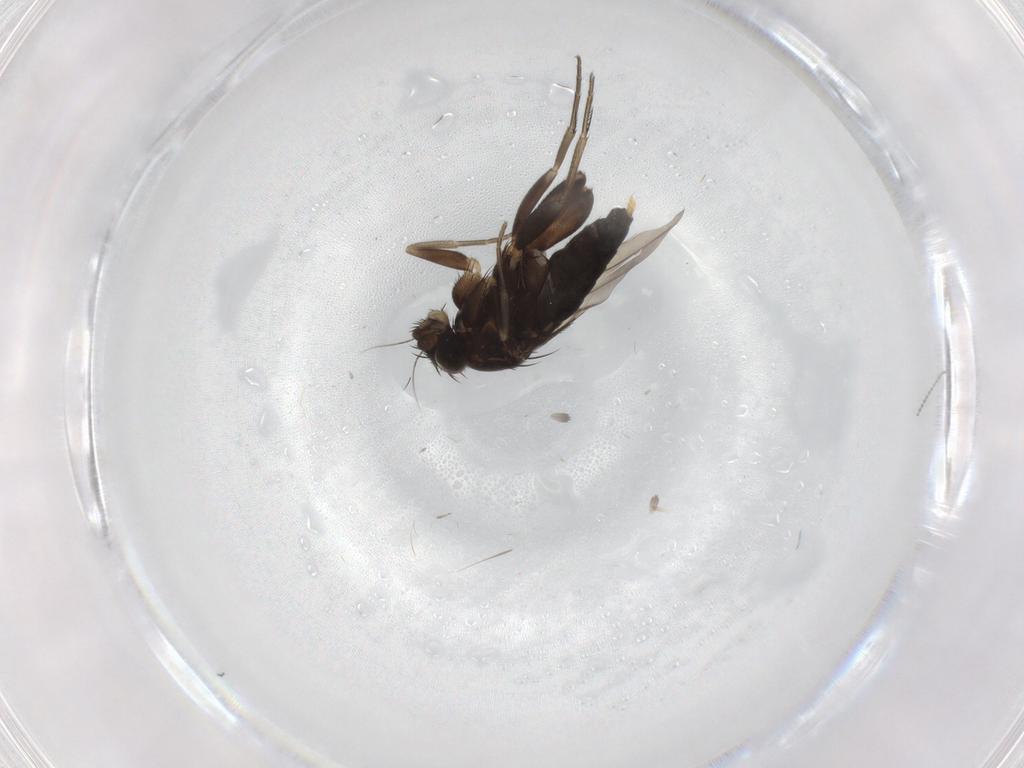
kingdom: Animalia
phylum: Arthropoda
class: Insecta
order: Diptera
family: Phoridae
